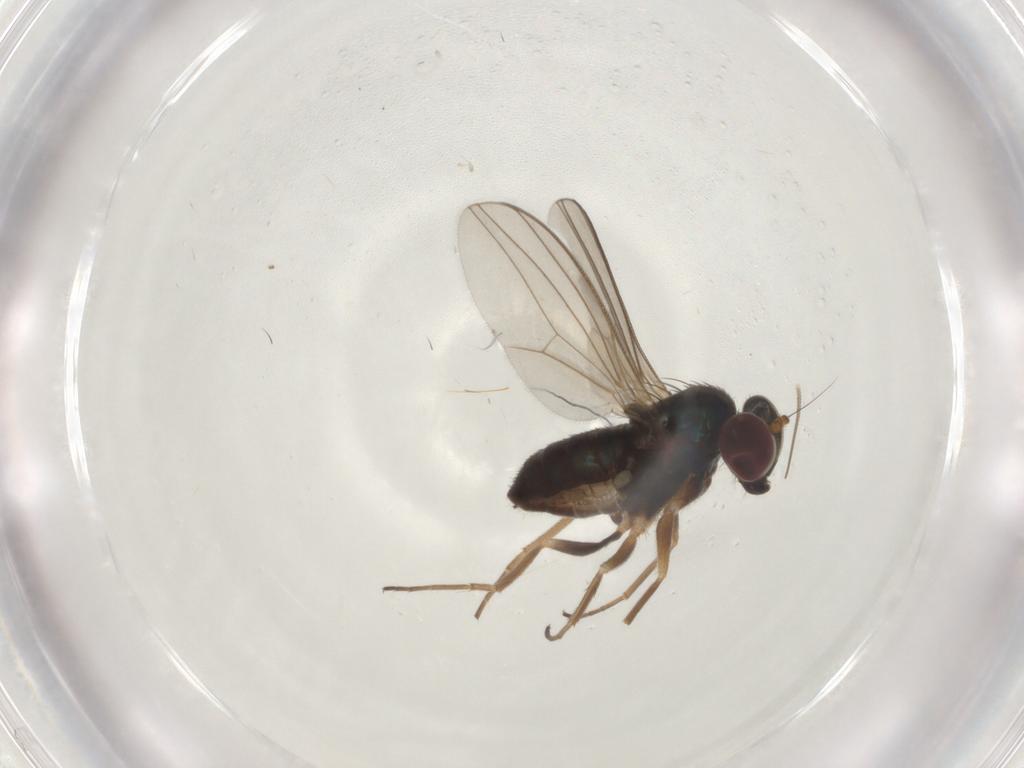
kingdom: Animalia
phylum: Arthropoda
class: Insecta
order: Diptera
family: Dolichopodidae
